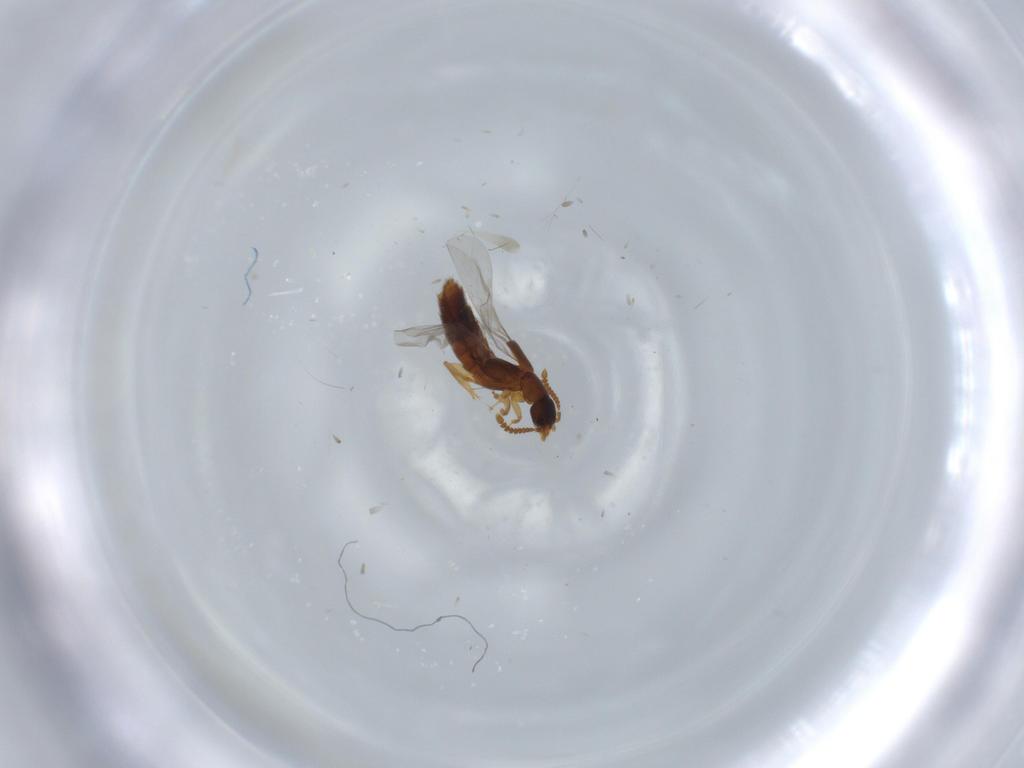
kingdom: Animalia
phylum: Arthropoda
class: Insecta
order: Coleoptera
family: Staphylinidae
